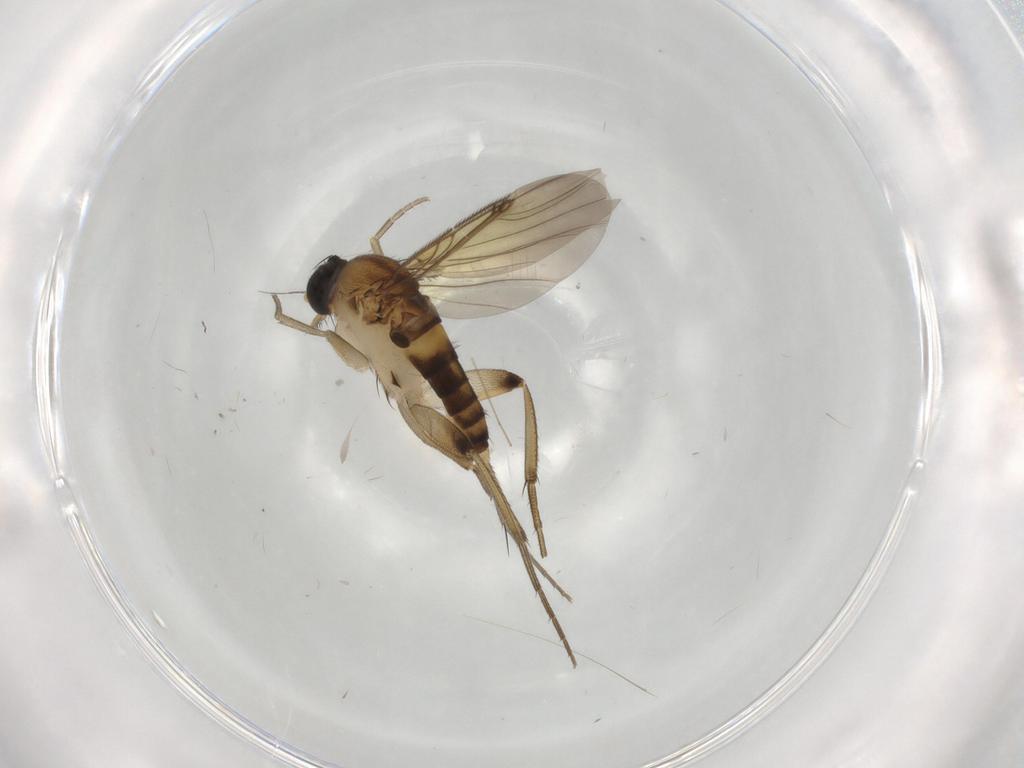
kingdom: Animalia
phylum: Arthropoda
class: Insecta
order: Diptera
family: Phoridae
